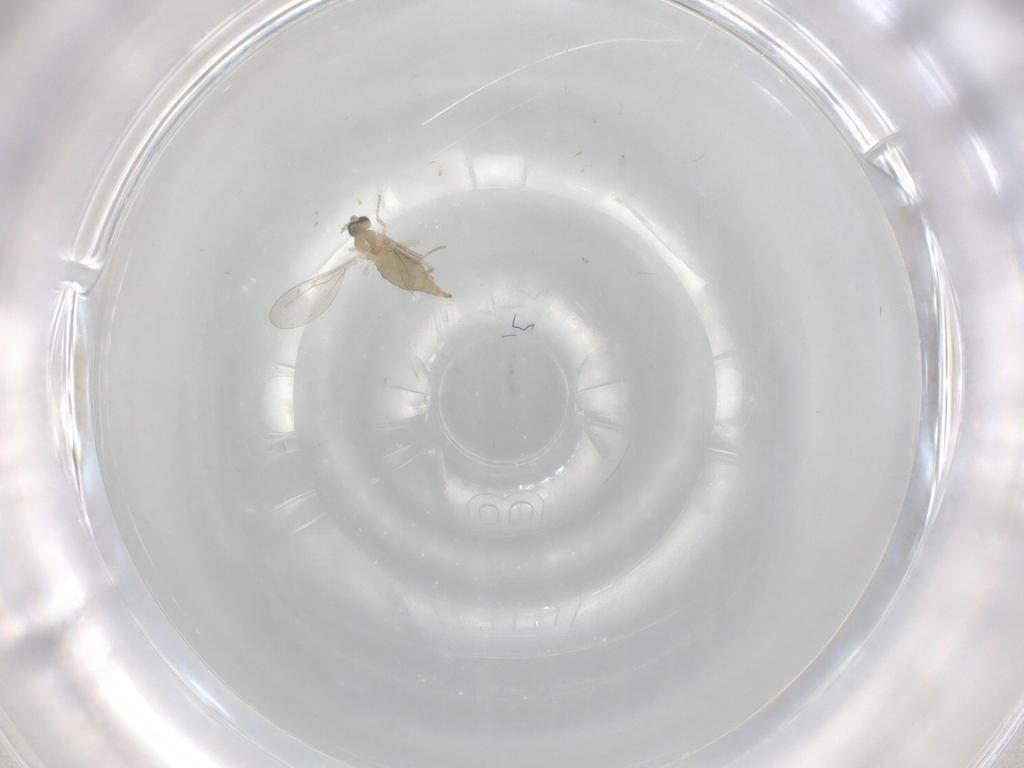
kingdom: Animalia
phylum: Arthropoda
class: Insecta
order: Diptera
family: Cecidomyiidae
